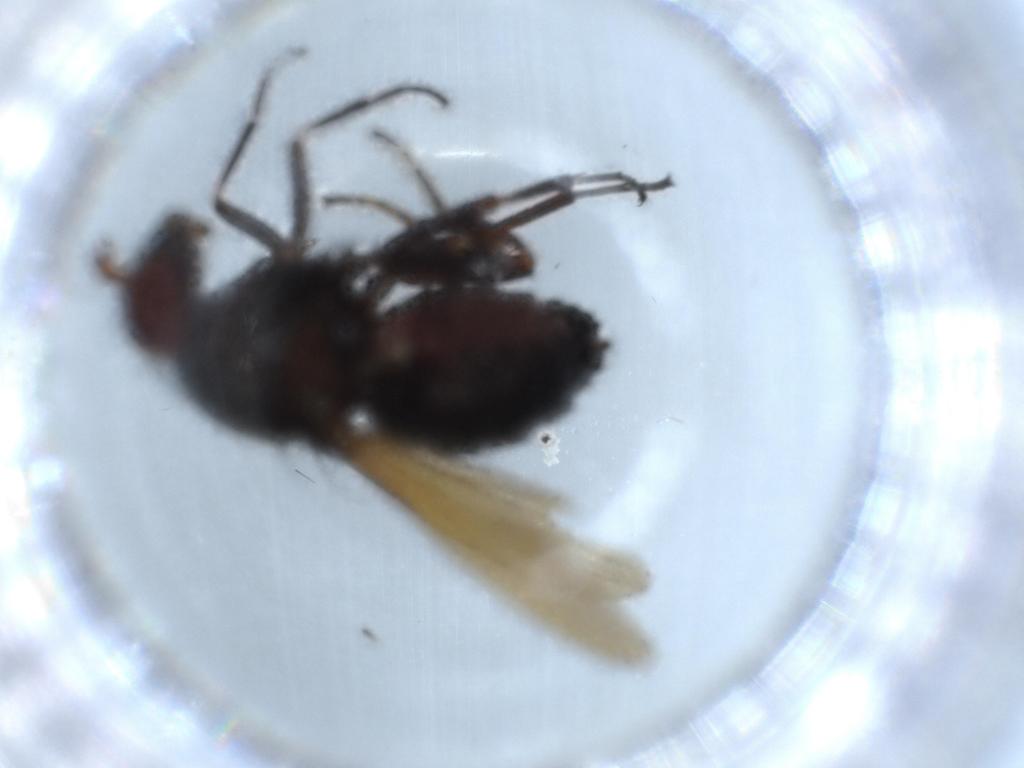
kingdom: Animalia
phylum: Arthropoda
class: Insecta
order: Diptera
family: Lauxaniidae
